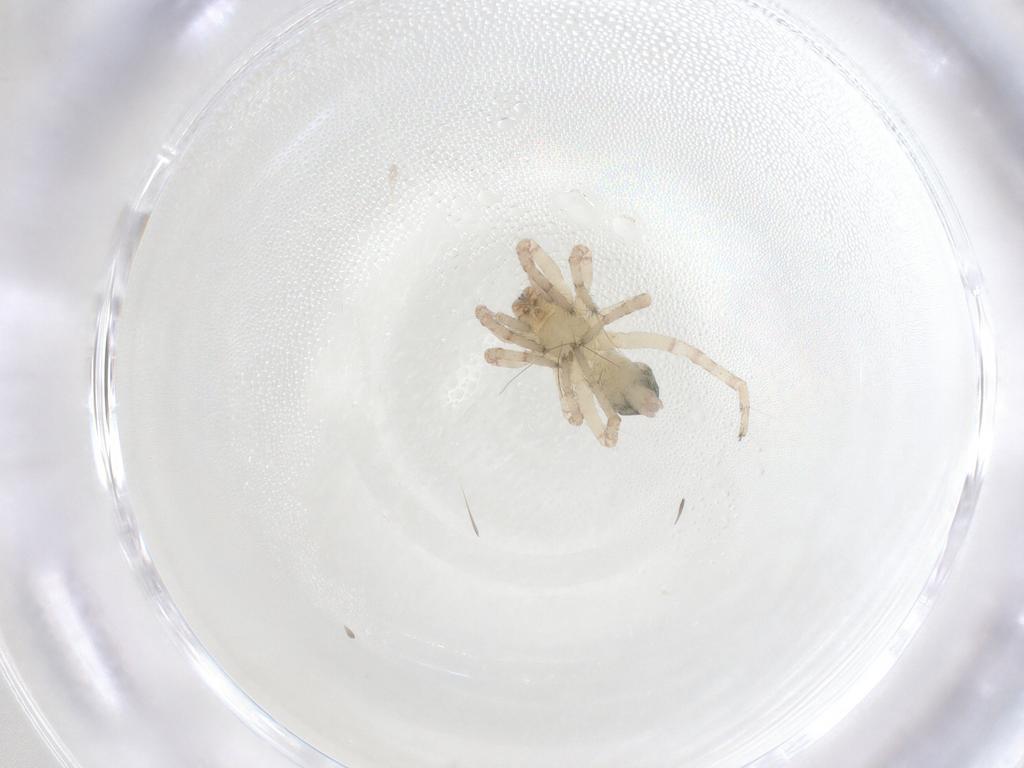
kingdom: Animalia
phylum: Arthropoda
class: Arachnida
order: Araneae
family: Anyphaenidae
